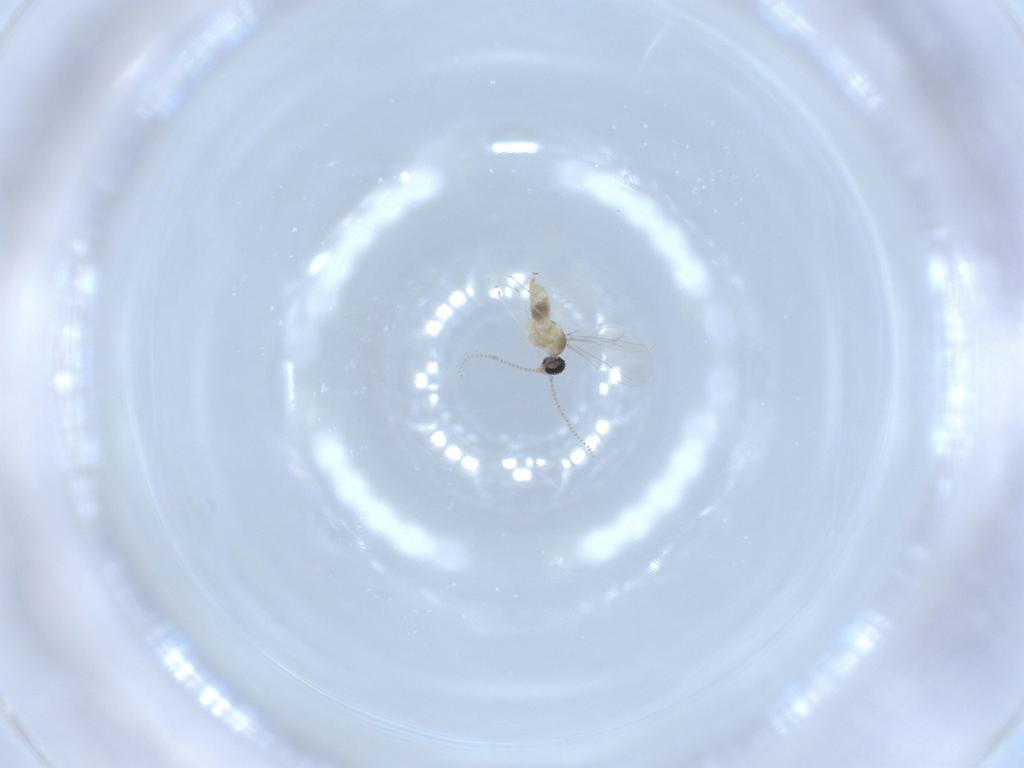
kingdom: Animalia
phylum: Arthropoda
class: Insecta
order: Diptera
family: Cecidomyiidae
